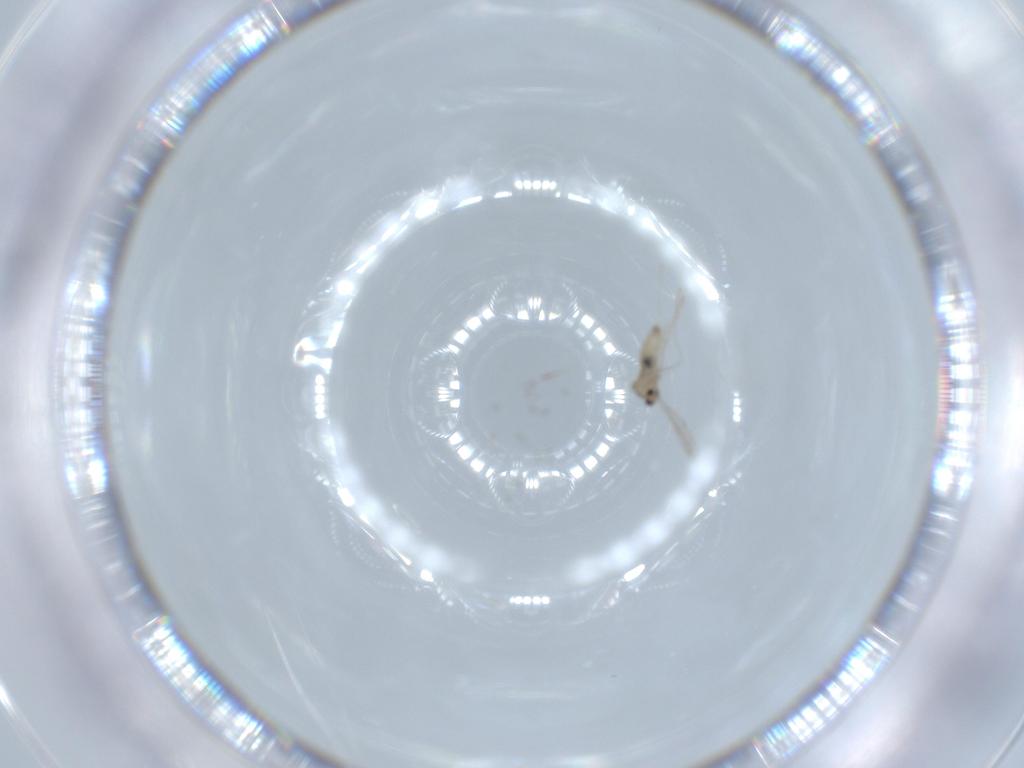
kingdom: Animalia
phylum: Arthropoda
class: Insecta
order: Diptera
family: Cecidomyiidae
